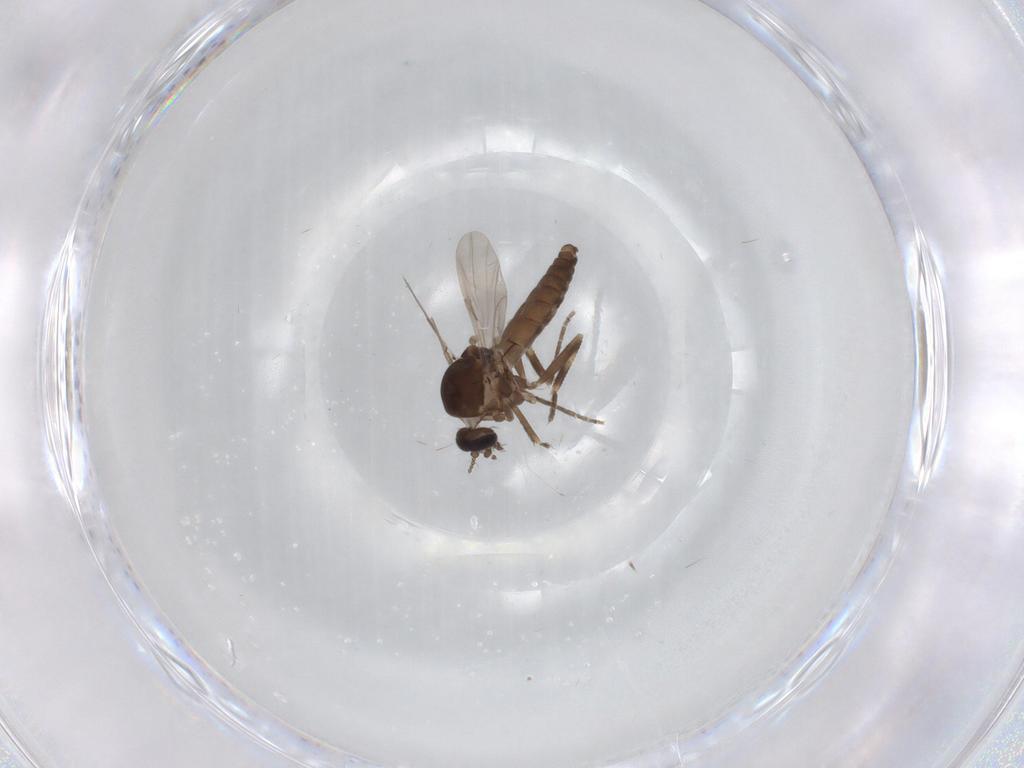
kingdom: Animalia
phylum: Arthropoda
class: Insecta
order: Diptera
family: Ceratopogonidae
